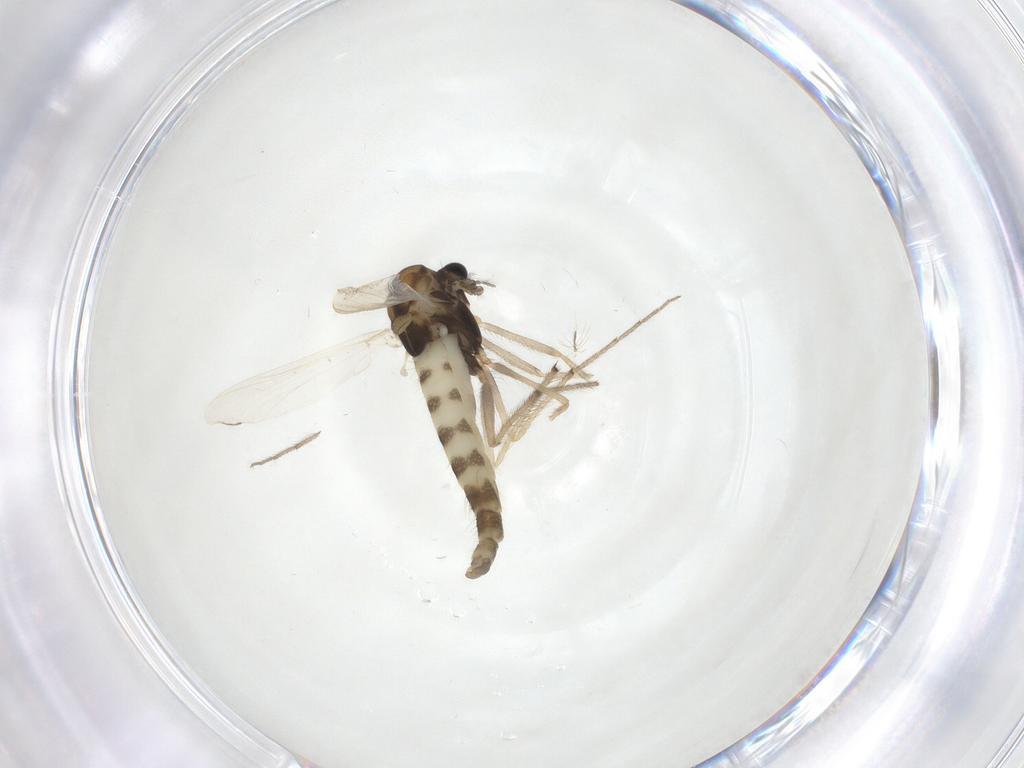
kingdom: Animalia
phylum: Arthropoda
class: Insecta
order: Diptera
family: Chironomidae
